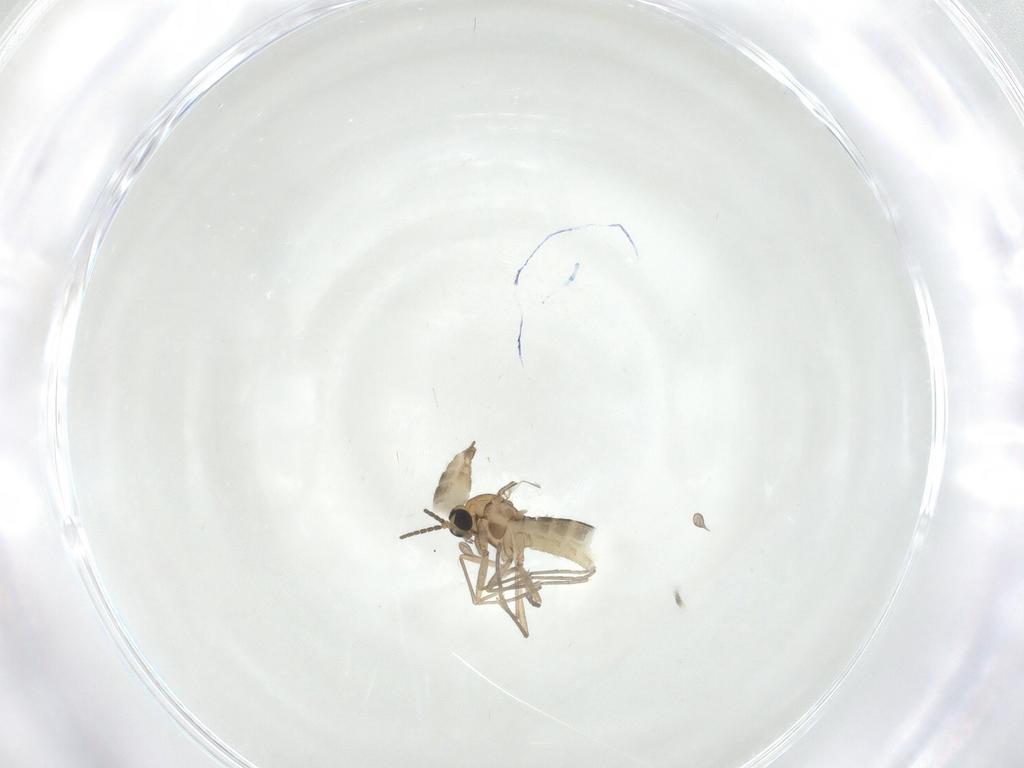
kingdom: Animalia
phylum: Arthropoda
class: Insecta
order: Diptera
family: Sciaridae
